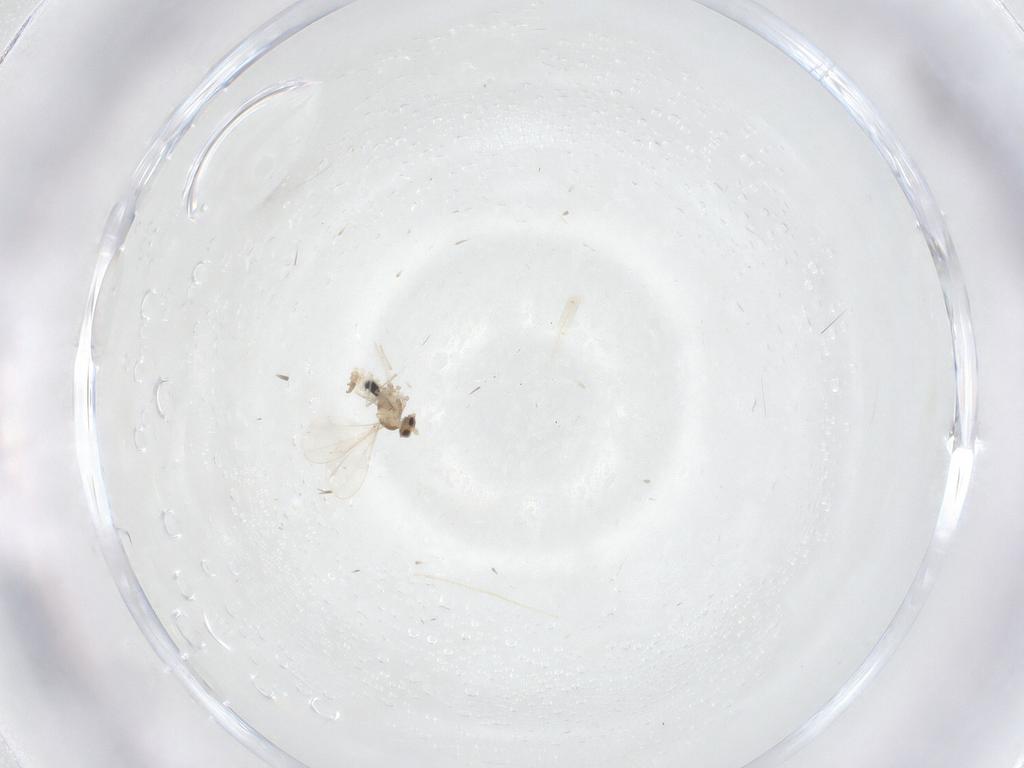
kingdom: Animalia
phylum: Arthropoda
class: Insecta
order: Diptera
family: Cecidomyiidae
